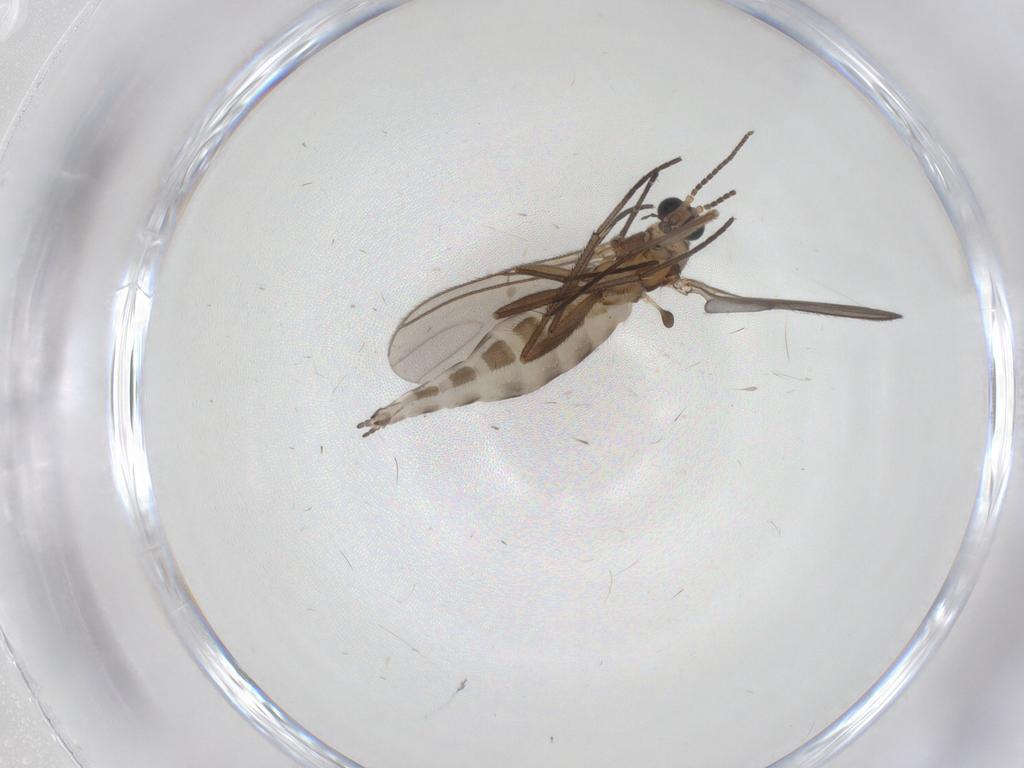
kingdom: Animalia
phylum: Arthropoda
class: Insecta
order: Diptera
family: Sciaridae
